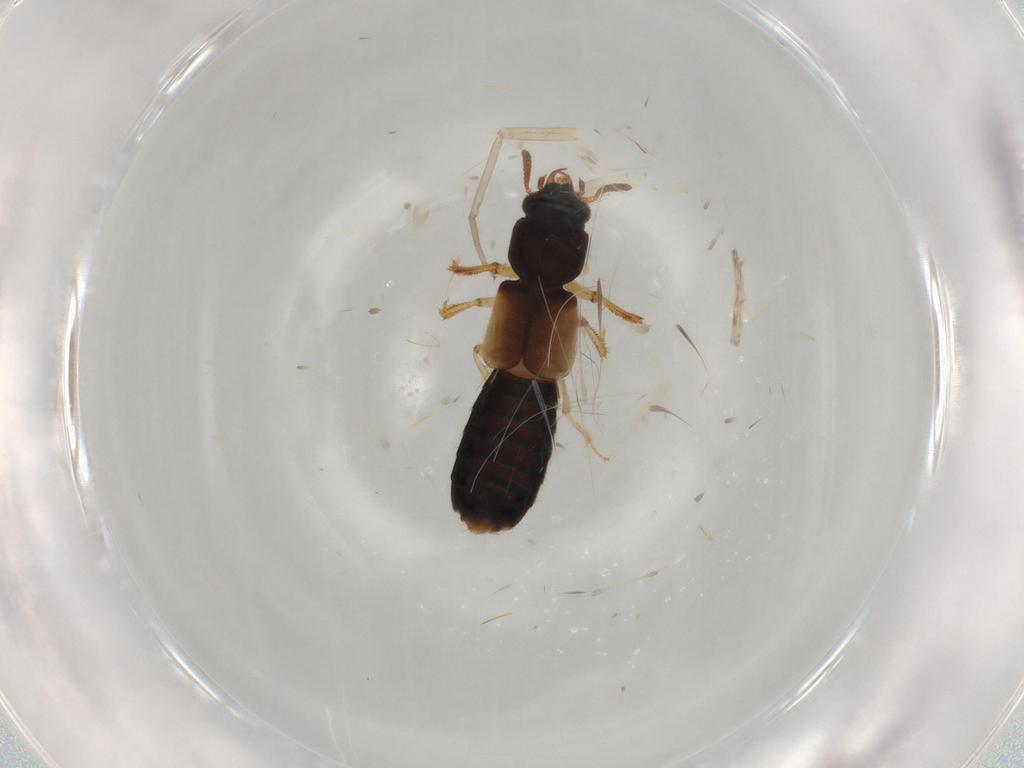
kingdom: Animalia
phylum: Arthropoda
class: Insecta
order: Coleoptera
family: Staphylinidae
